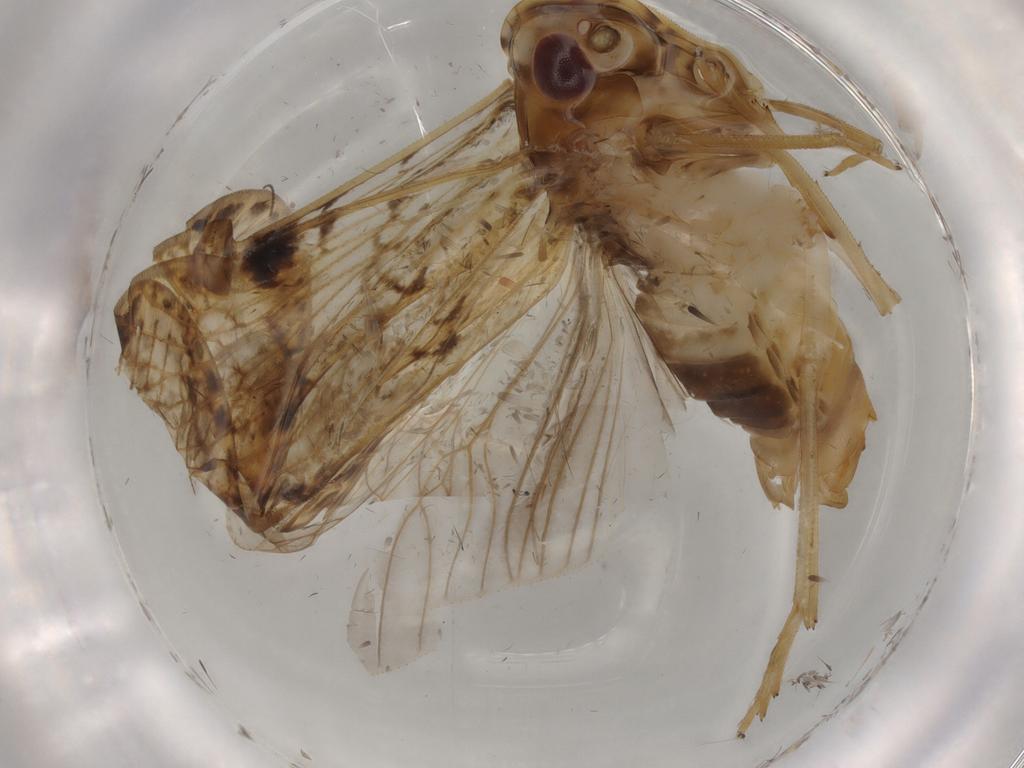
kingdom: Animalia
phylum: Arthropoda
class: Insecta
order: Hemiptera
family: Cixiidae
